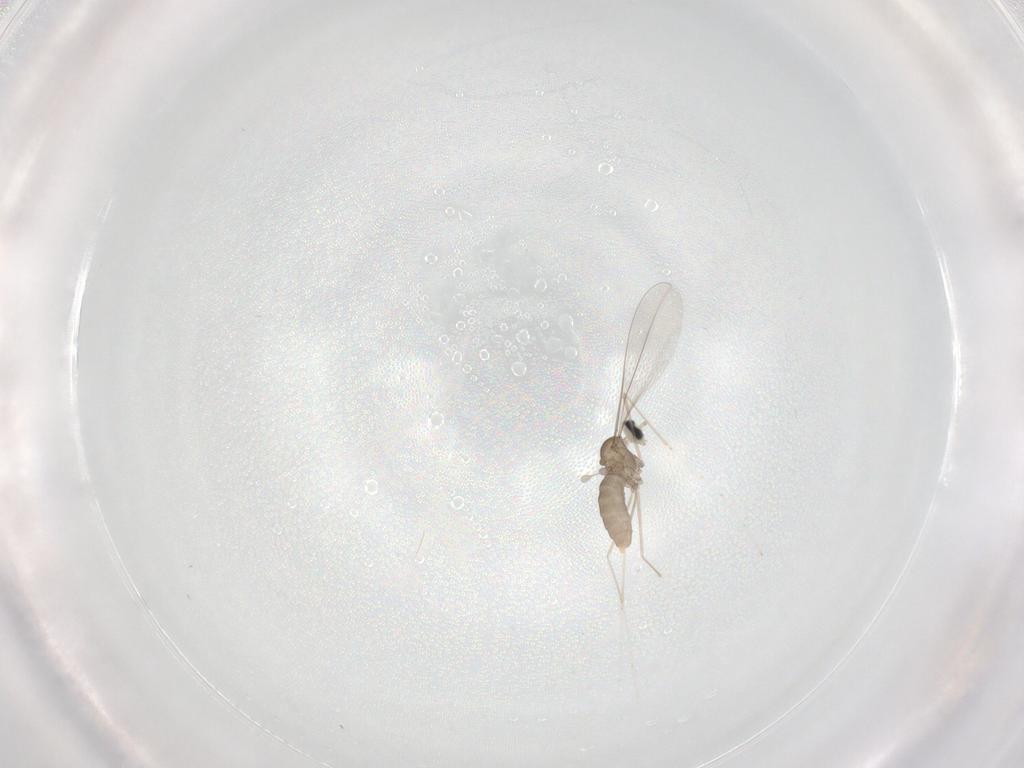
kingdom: Animalia
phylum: Arthropoda
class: Insecta
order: Diptera
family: Cecidomyiidae
